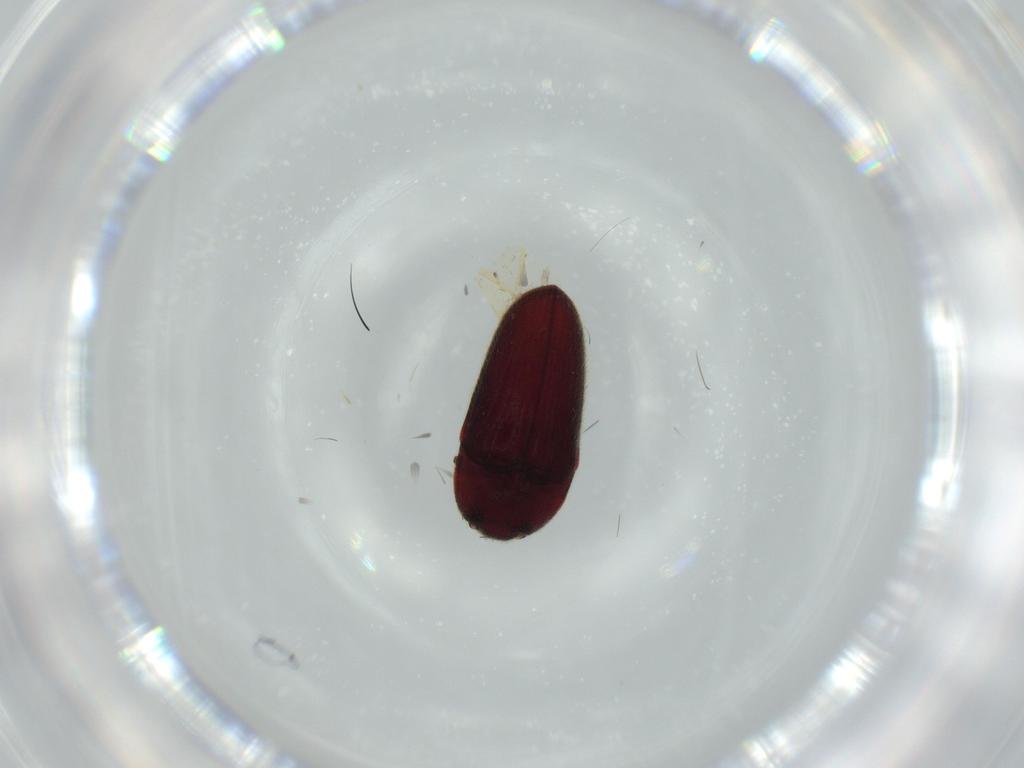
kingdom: Animalia
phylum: Arthropoda
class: Insecta
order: Coleoptera
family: Throscidae
